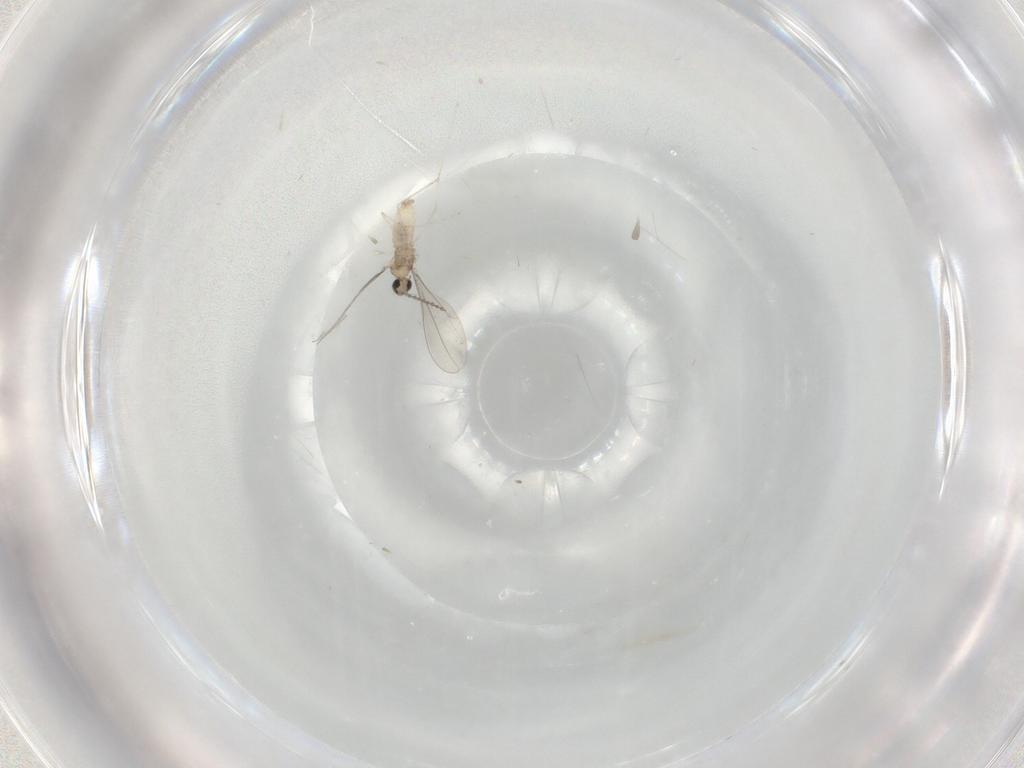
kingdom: Animalia
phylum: Arthropoda
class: Insecta
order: Diptera
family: Cecidomyiidae
